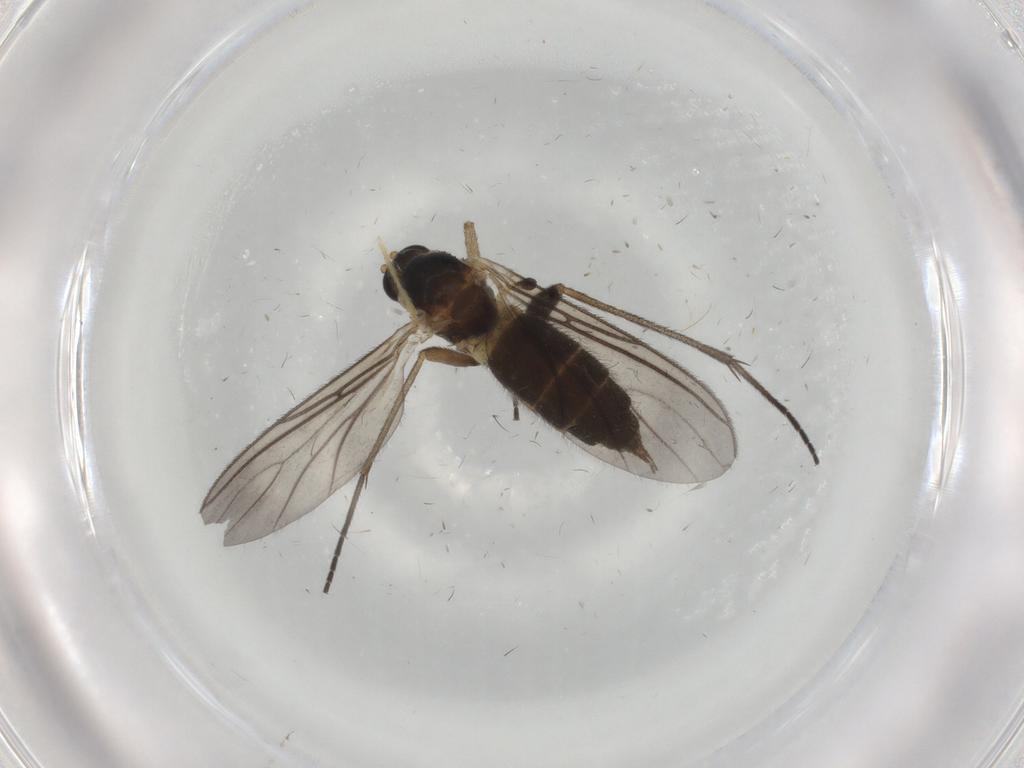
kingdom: Animalia
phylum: Arthropoda
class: Insecta
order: Diptera
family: Sciaridae
